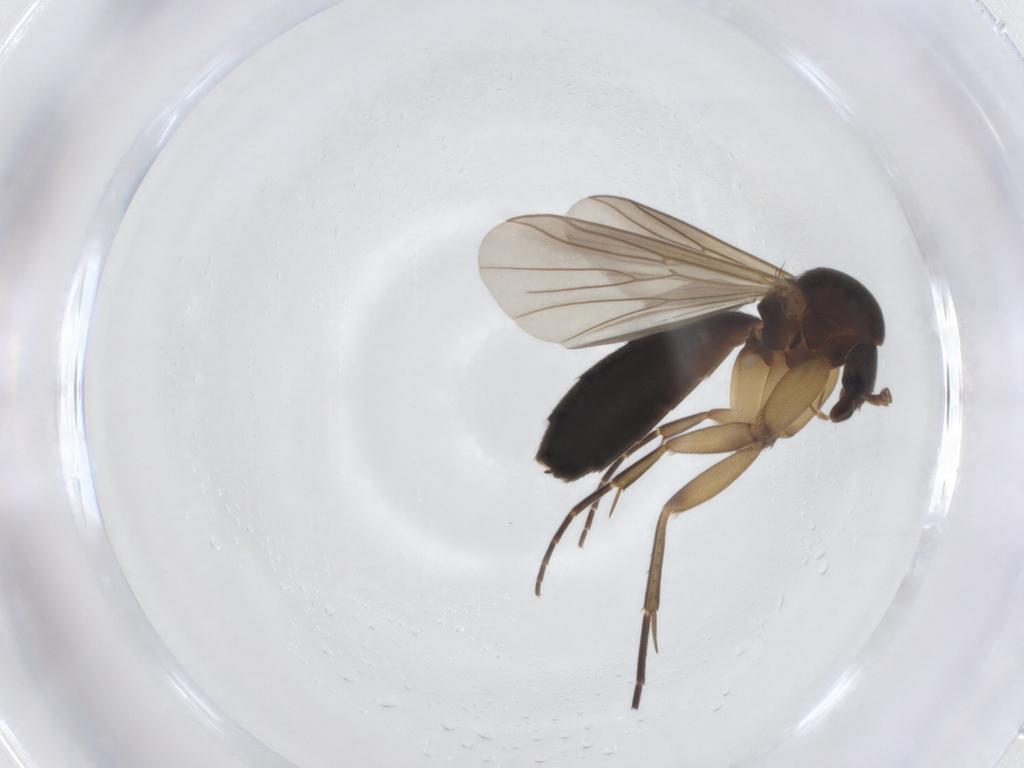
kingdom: Animalia
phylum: Arthropoda
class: Insecta
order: Diptera
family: Mycetophilidae
